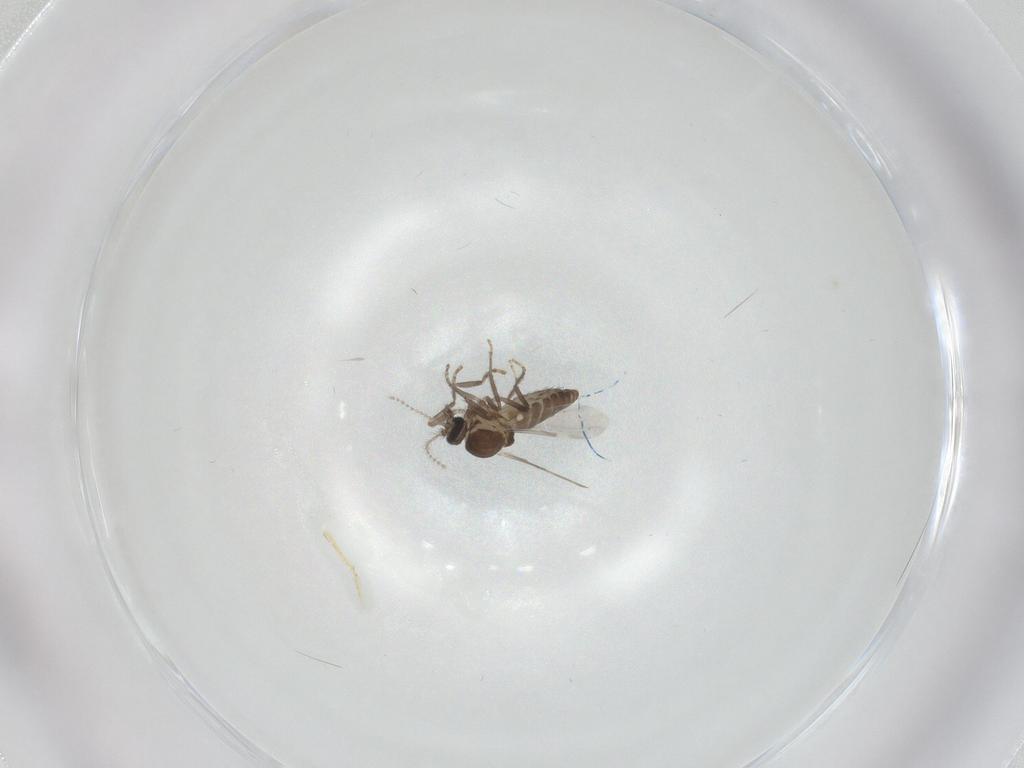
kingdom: Animalia
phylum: Arthropoda
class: Insecta
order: Diptera
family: Ceratopogonidae
